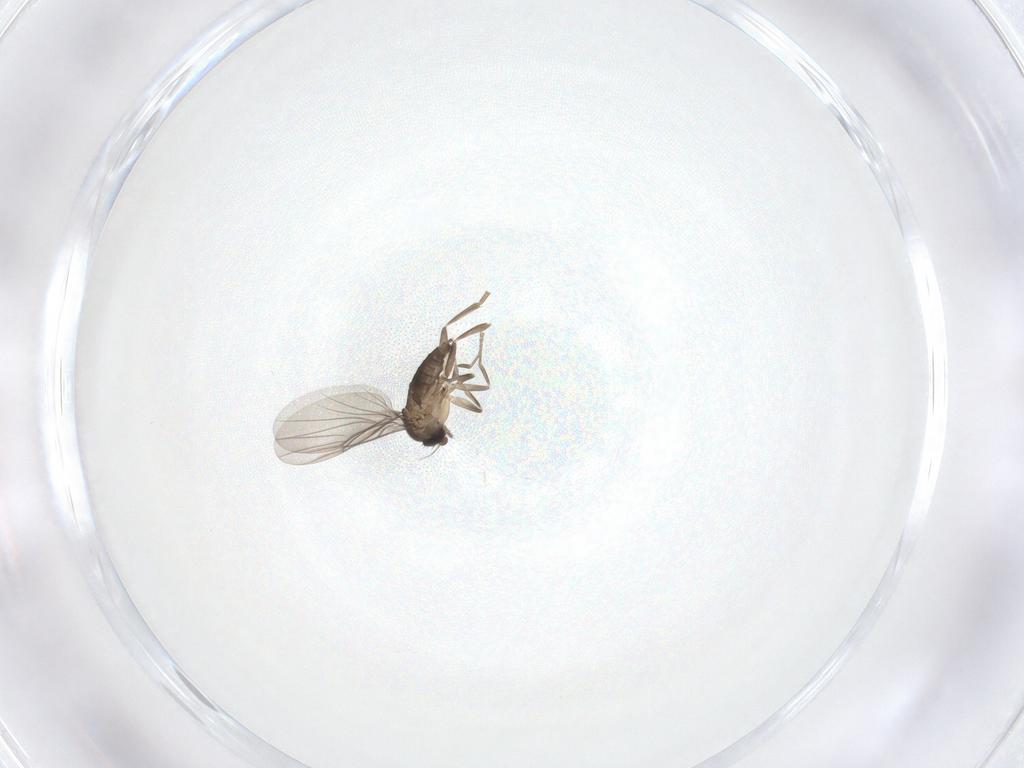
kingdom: Animalia
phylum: Arthropoda
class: Insecta
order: Diptera
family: Phoridae
